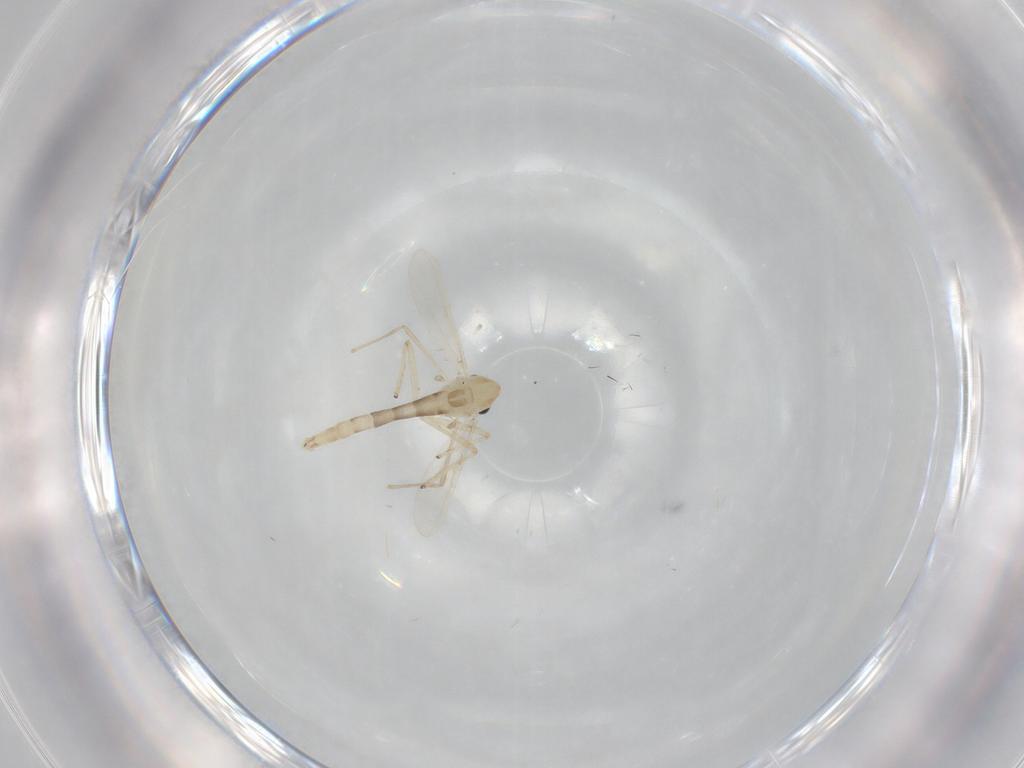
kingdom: Animalia
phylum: Arthropoda
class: Insecta
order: Diptera
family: Chironomidae
